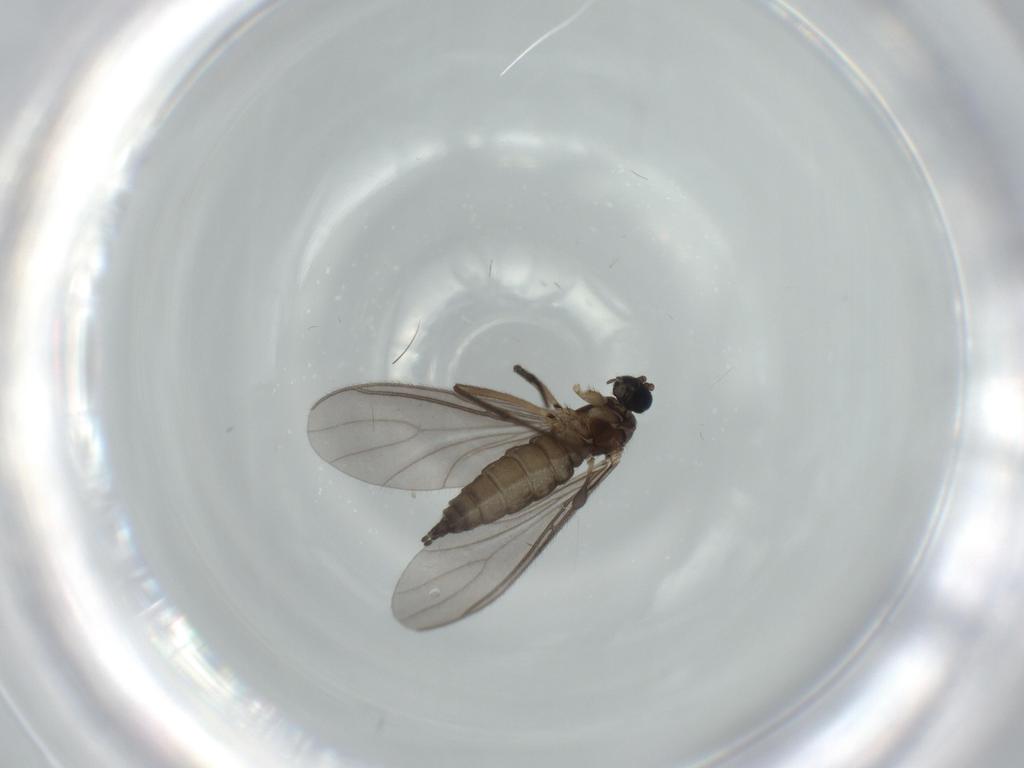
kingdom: Animalia
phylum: Arthropoda
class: Insecta
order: Diptera
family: Sciaridae
